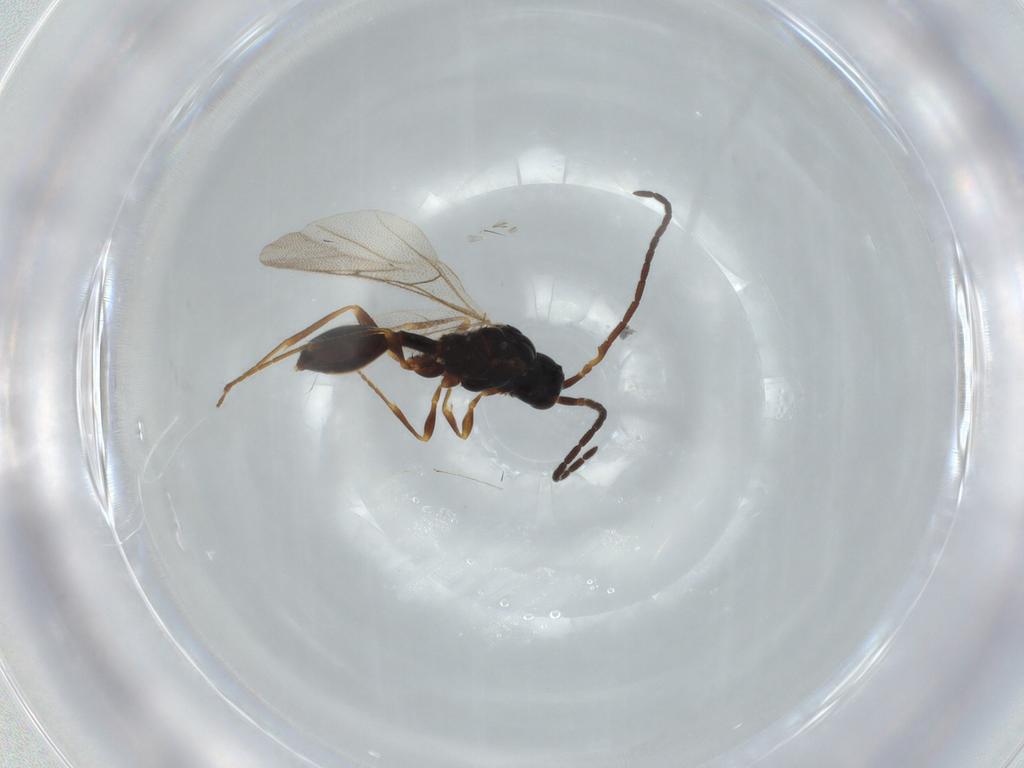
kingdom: Animalia
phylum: Arthropoda
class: Insecta
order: Hymenoptera
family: Mymaridae
